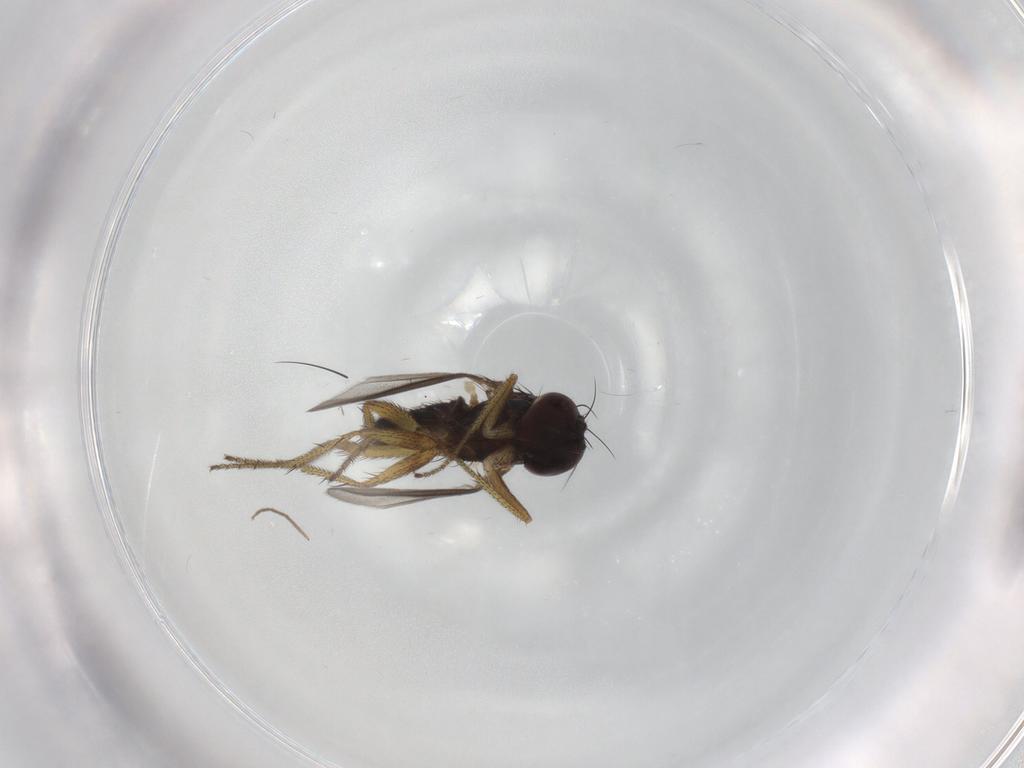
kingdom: Animalia
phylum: Arthropoda
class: Insecta
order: Diptera
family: Chironomidae
